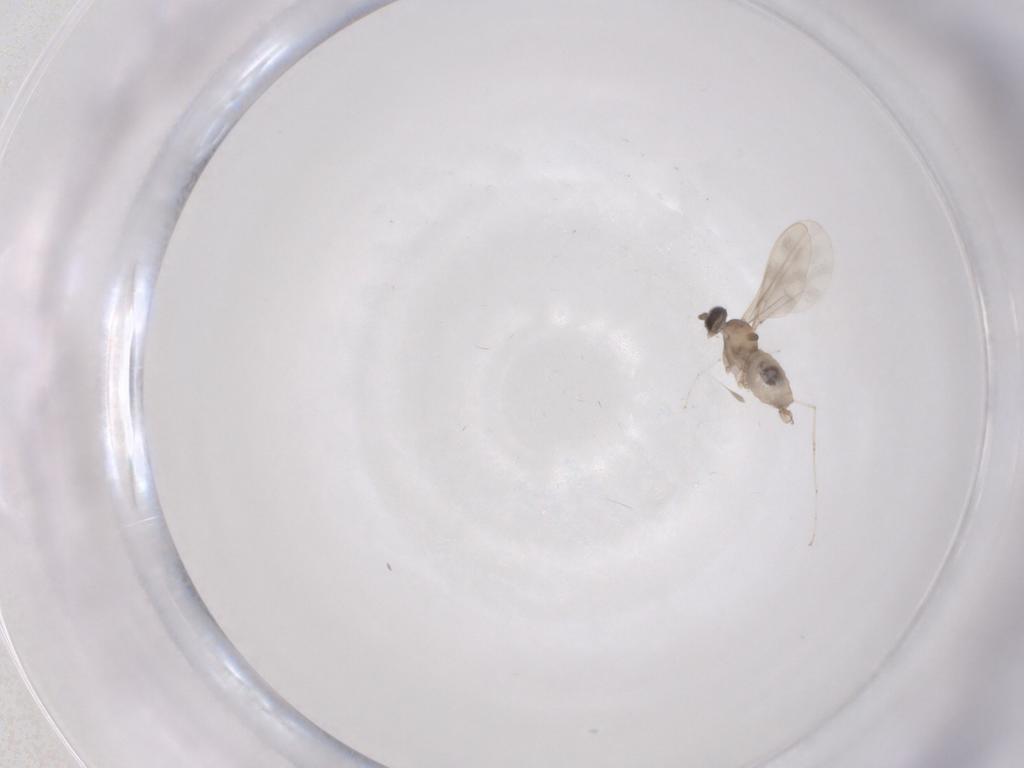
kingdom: Animalia
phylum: Arthropoda
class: Insecta
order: Diptera
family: Cecidomyiidae
